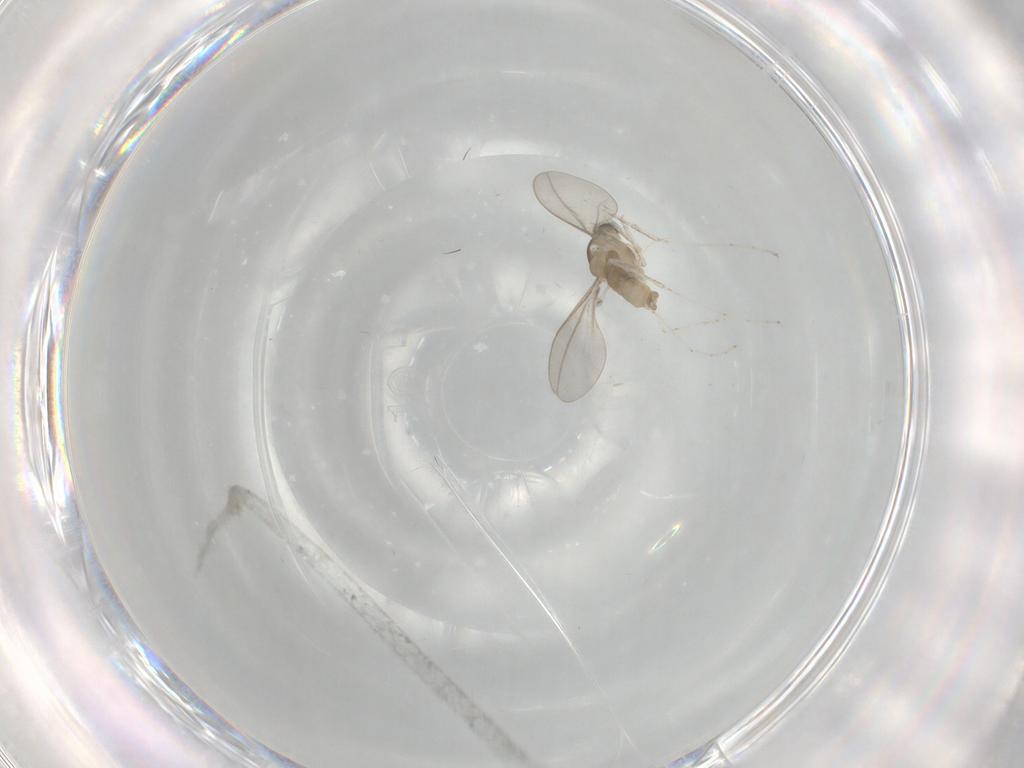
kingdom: Animalia
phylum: Arthropoda
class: Insecta
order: Diptera
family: Cecidomyiidae
